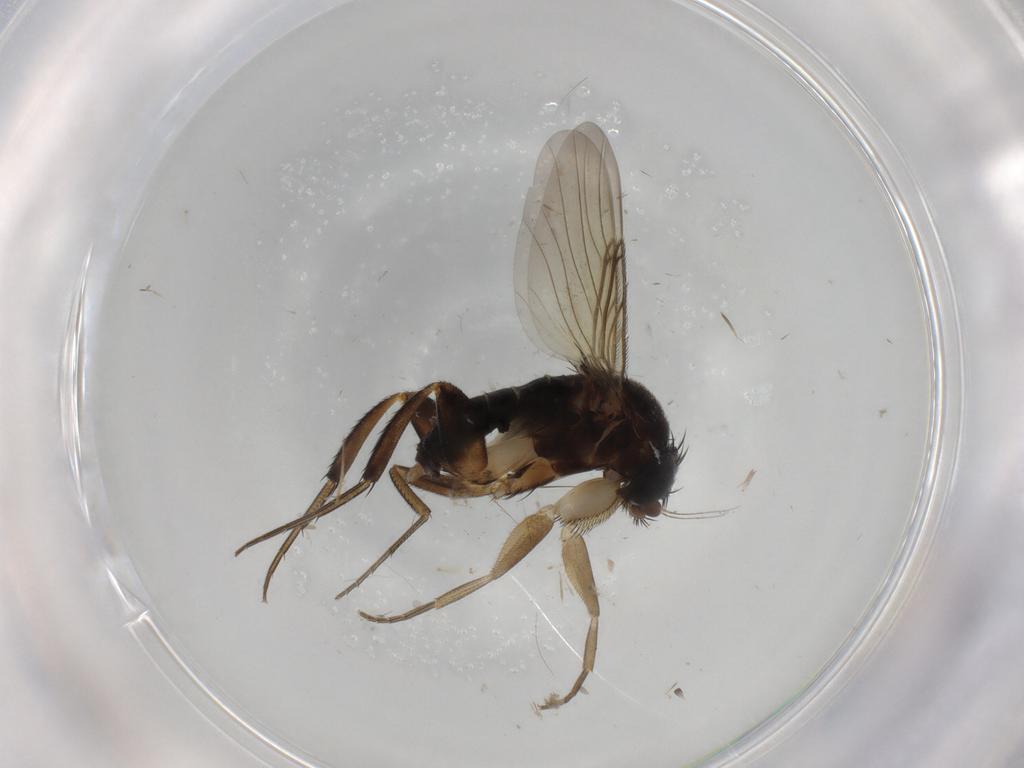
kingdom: Animalia
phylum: Arthropoda
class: Insecta
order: Diptera
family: Phoridae
